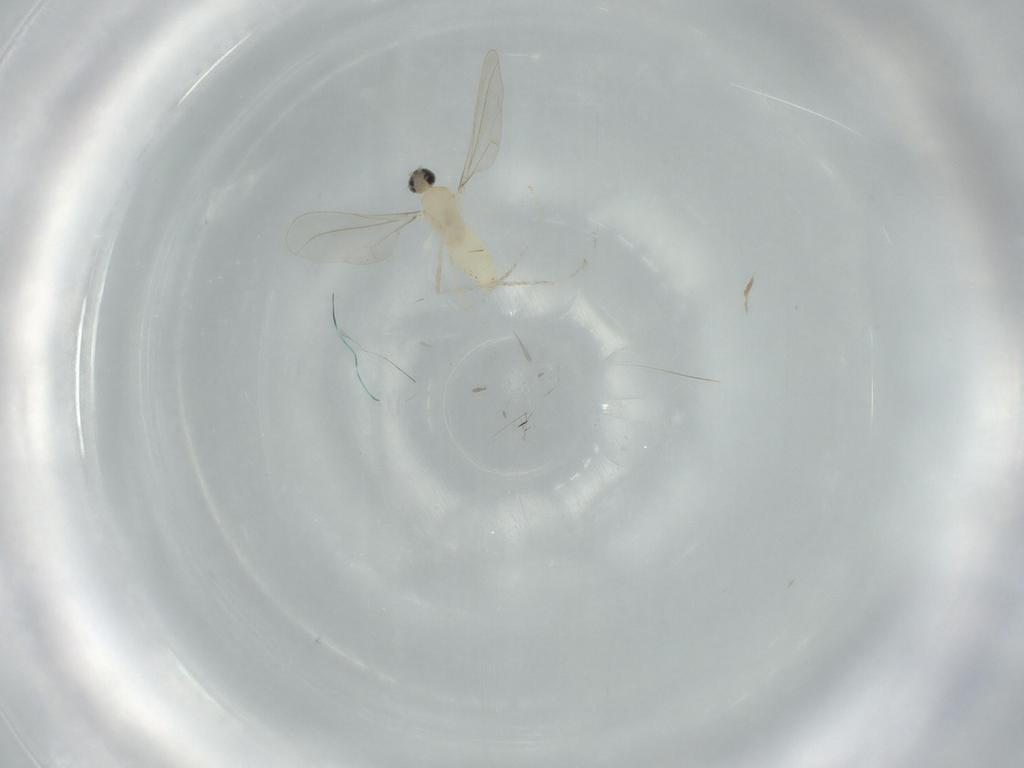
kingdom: Animalia
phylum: Arthropoda
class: Insecta
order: Diptera
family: Cecidomyiidae
